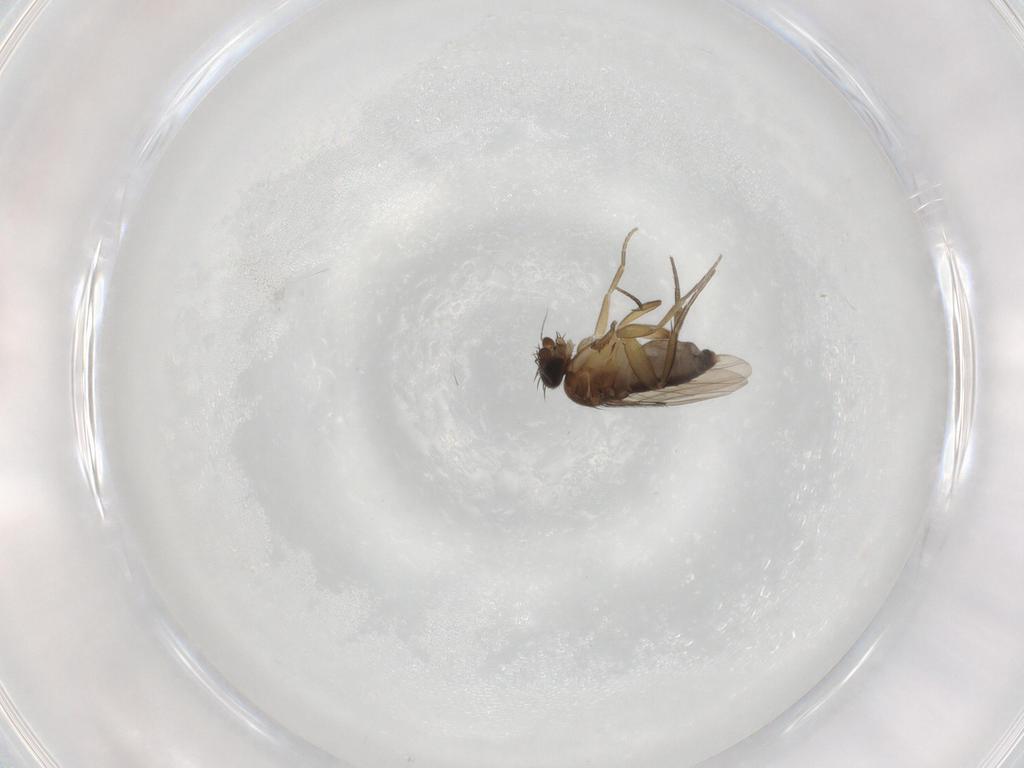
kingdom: Animalia
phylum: Arthropoda
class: Insecta
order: Diptera
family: Phoridae
